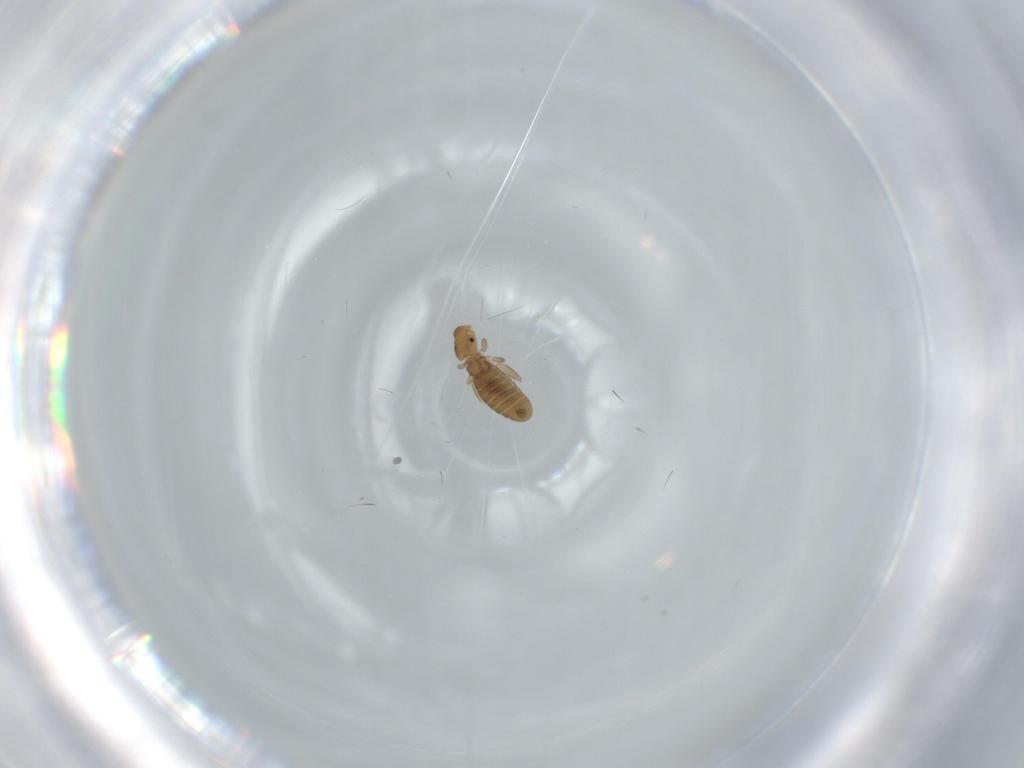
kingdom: Animalia
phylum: Arthropoda
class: Insecta
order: Psocodea
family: Liposcelididae
